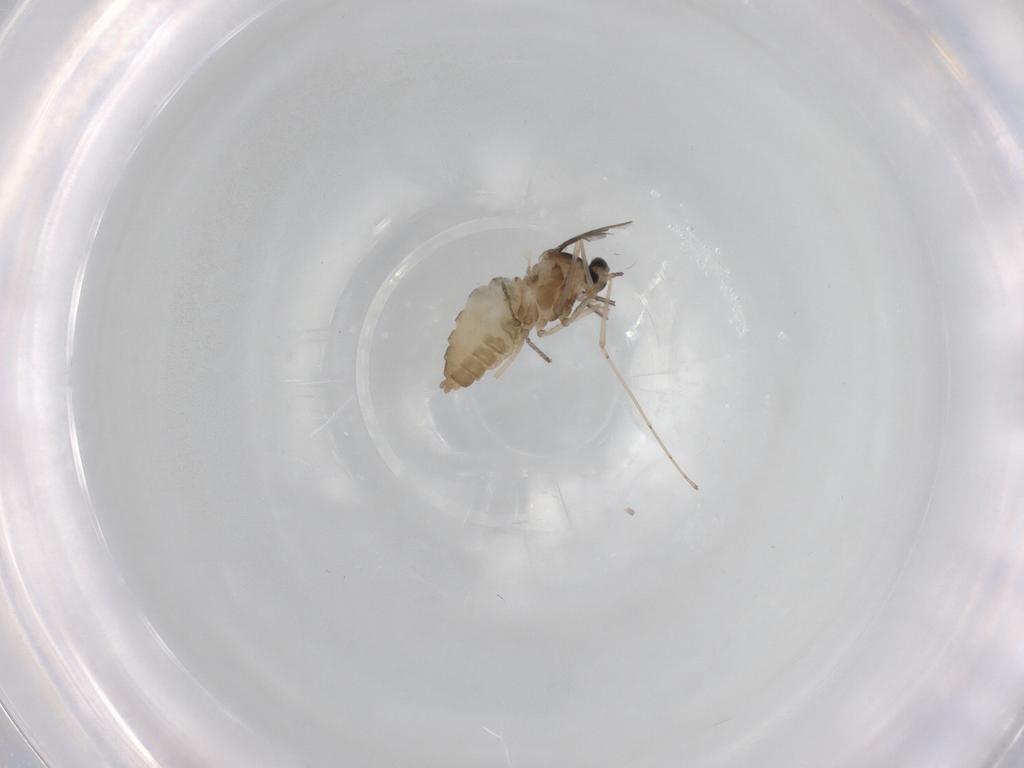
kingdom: Animalia
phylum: Arthropoda
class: Insecta
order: Diptera
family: Cecidomyiidae
